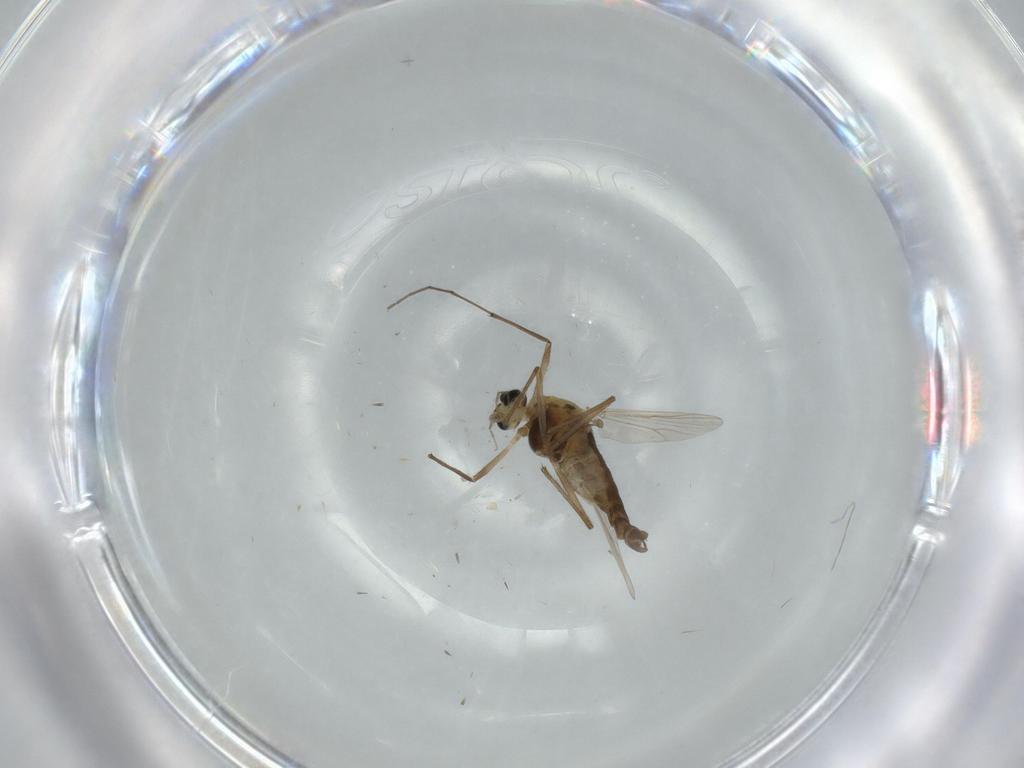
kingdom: Animalia
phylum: Arthropoda
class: Insecta
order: Diptera
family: Chironomidae
